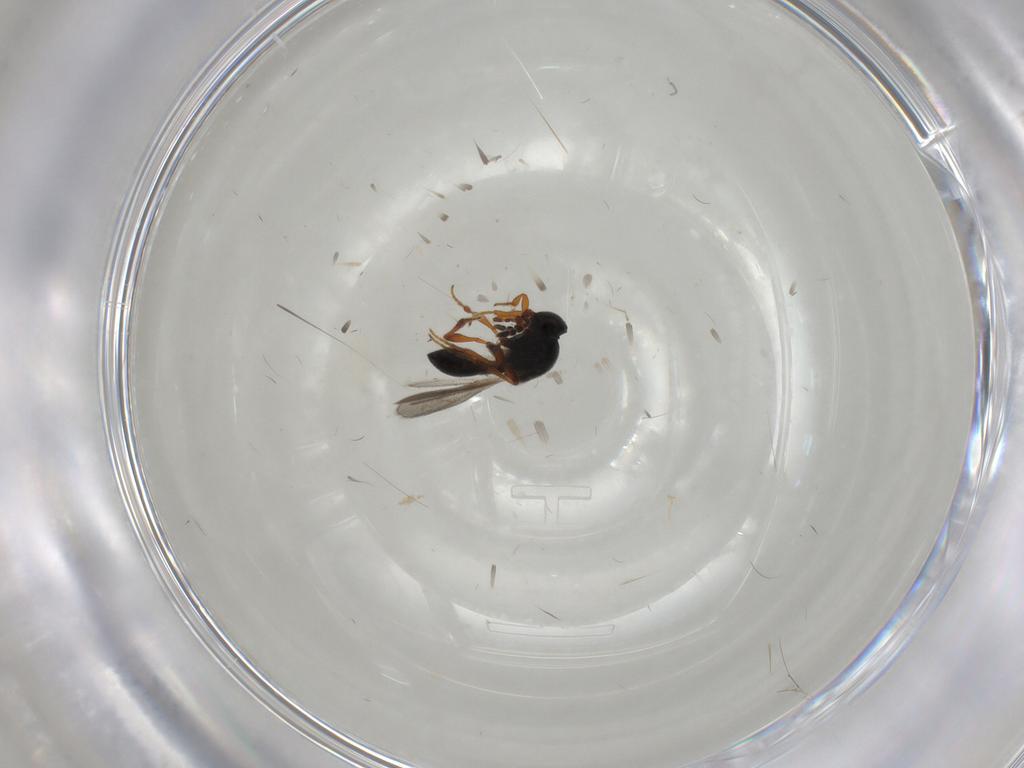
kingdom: Animalia
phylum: Arthropoda
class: Insecta
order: Hymenoptera
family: Platygastridae
